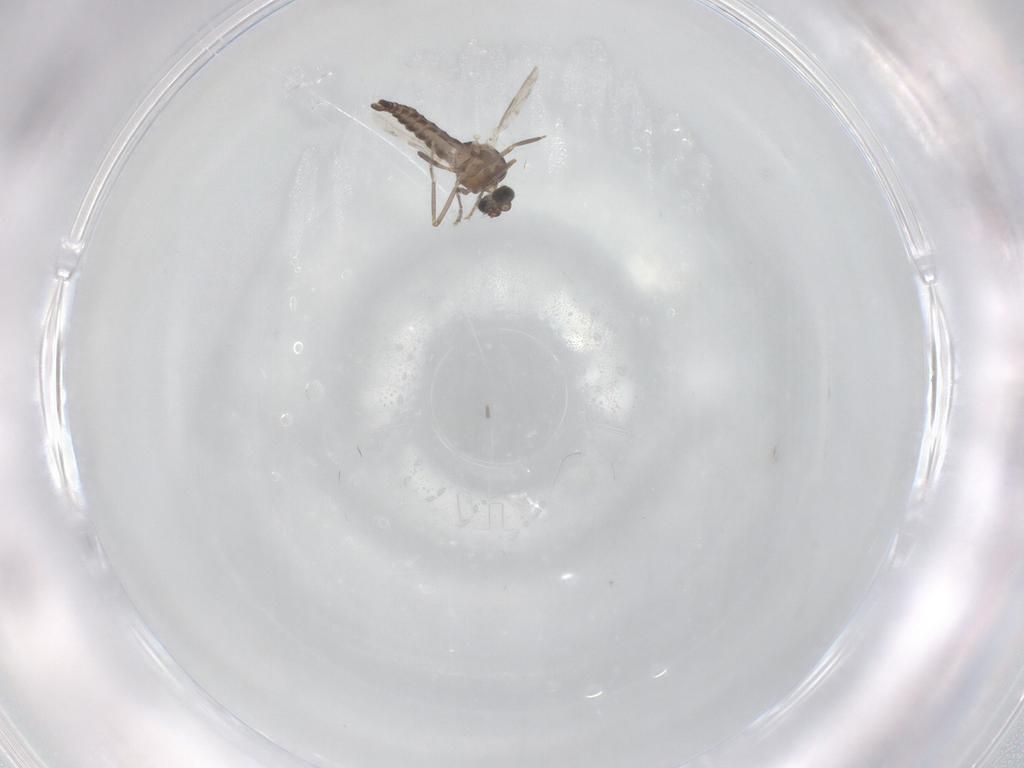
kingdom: Animalia
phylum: Arthropoda
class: Insecta
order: Diptera
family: Ceratopogonidae
